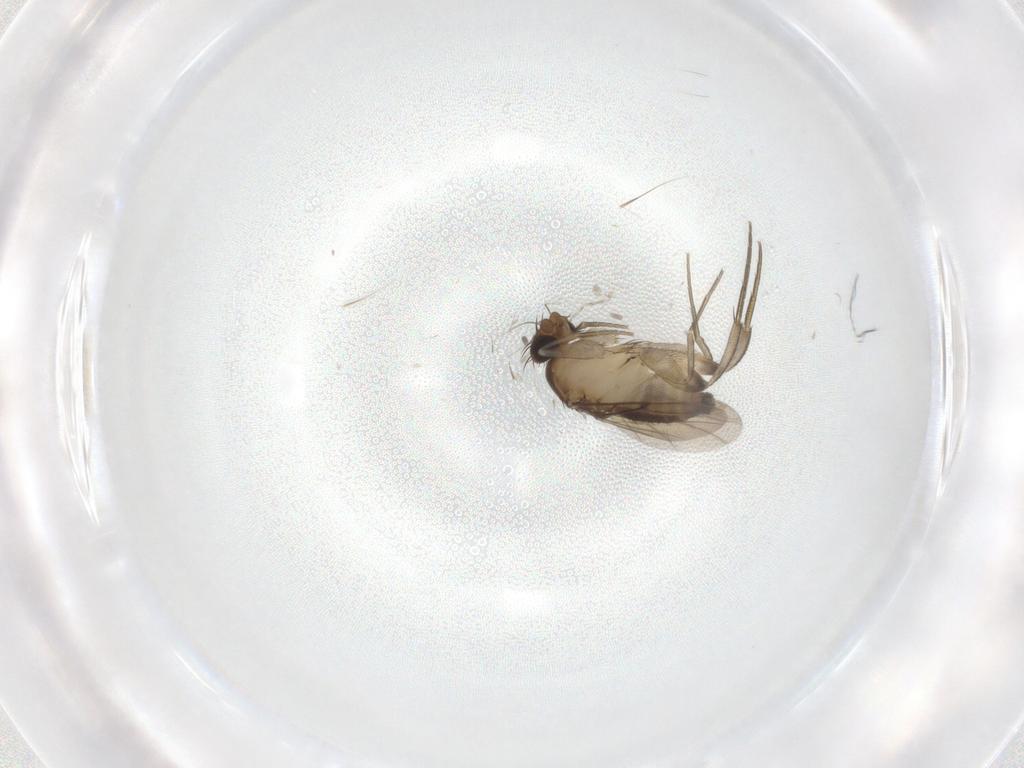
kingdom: Animalia
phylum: Arthropoda
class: Insecta
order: Diptera
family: Phoridae
